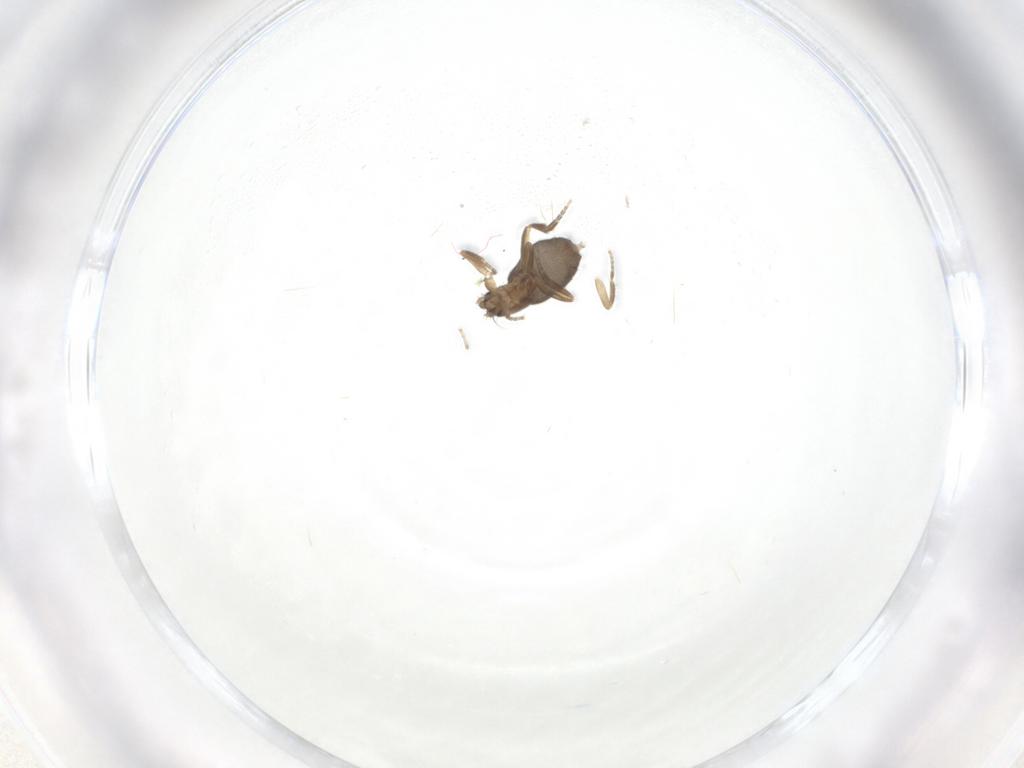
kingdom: Animalia
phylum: Arthropoda
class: Insecta
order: Diptera
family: Phoridae
